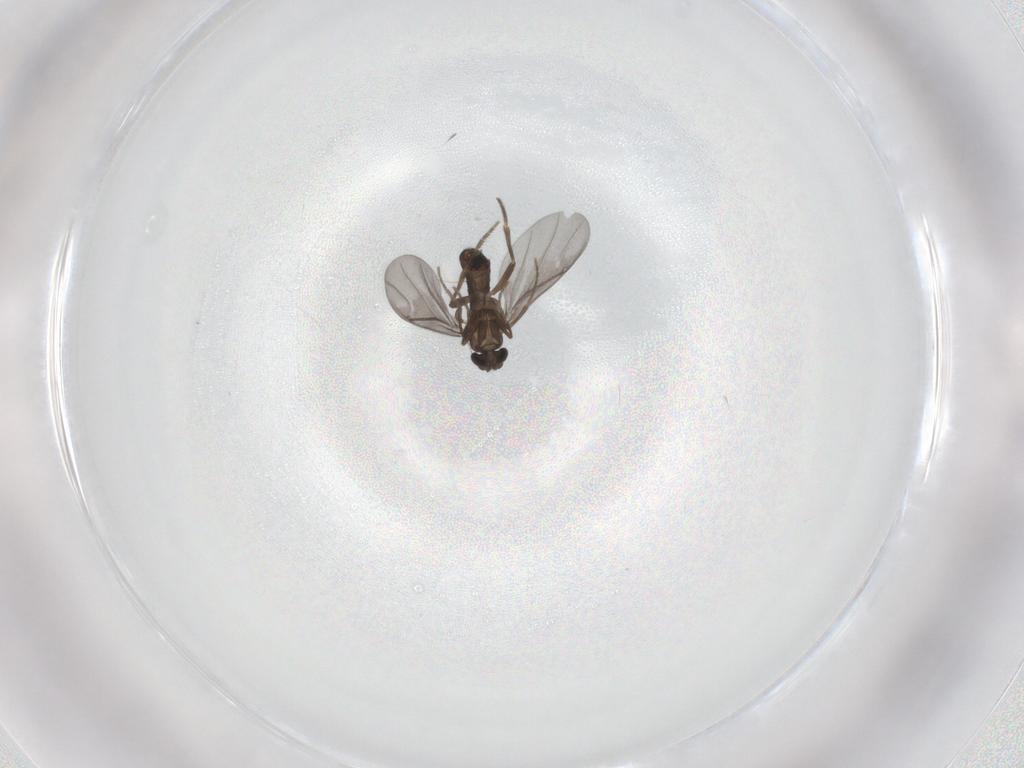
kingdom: Animalia
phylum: Arthropoda
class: Insecta
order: Diptera
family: Phoridae
